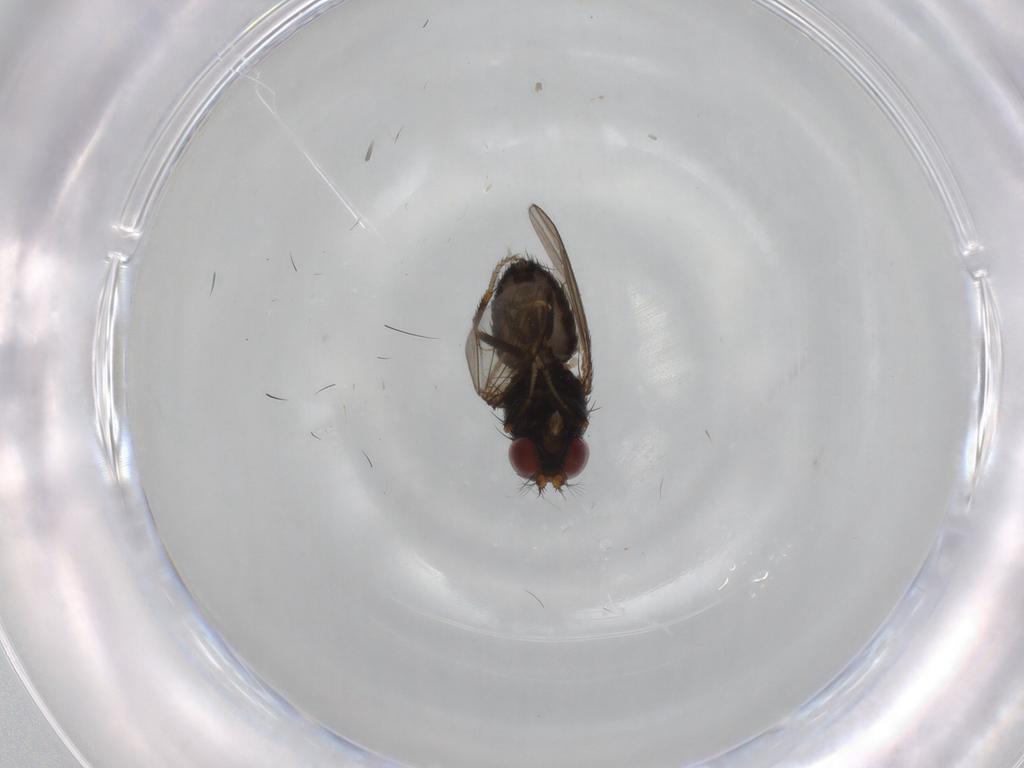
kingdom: Animalia
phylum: Arthropoda
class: Insecta
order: Diptera
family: Ephydridae
